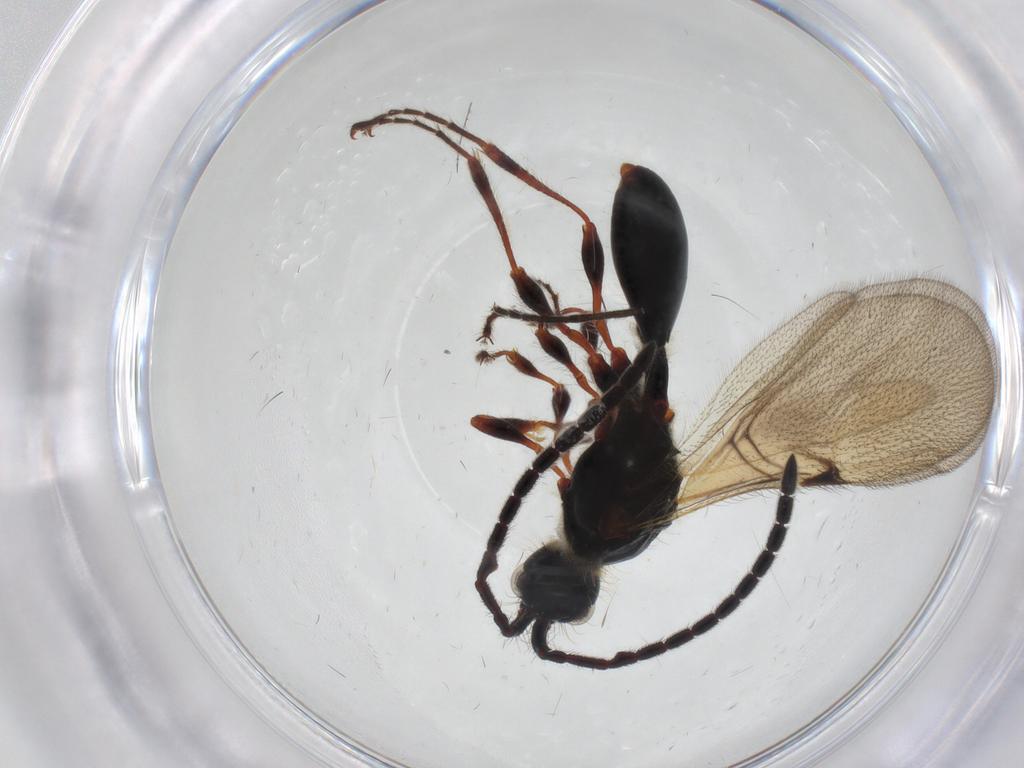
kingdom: Animalia
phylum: Arthropoda
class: Insecta
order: Hymenoptera
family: Diapriidae
